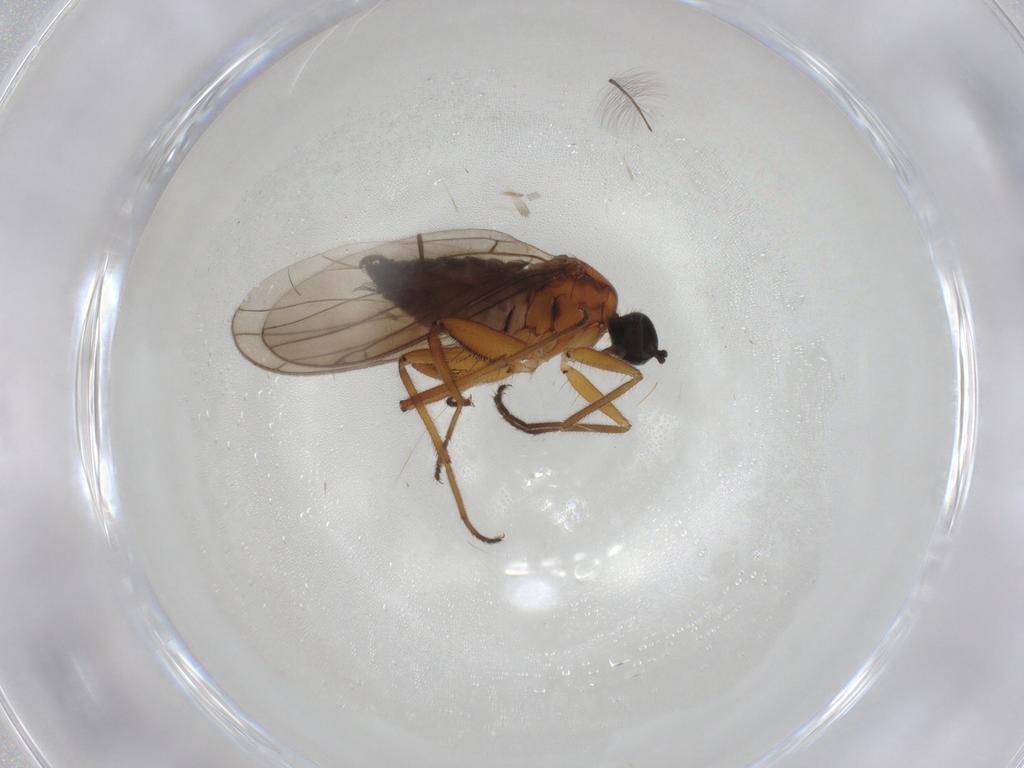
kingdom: Animalia
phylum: Arthropoda
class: Insecta
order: Diptera
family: Hybotidae
